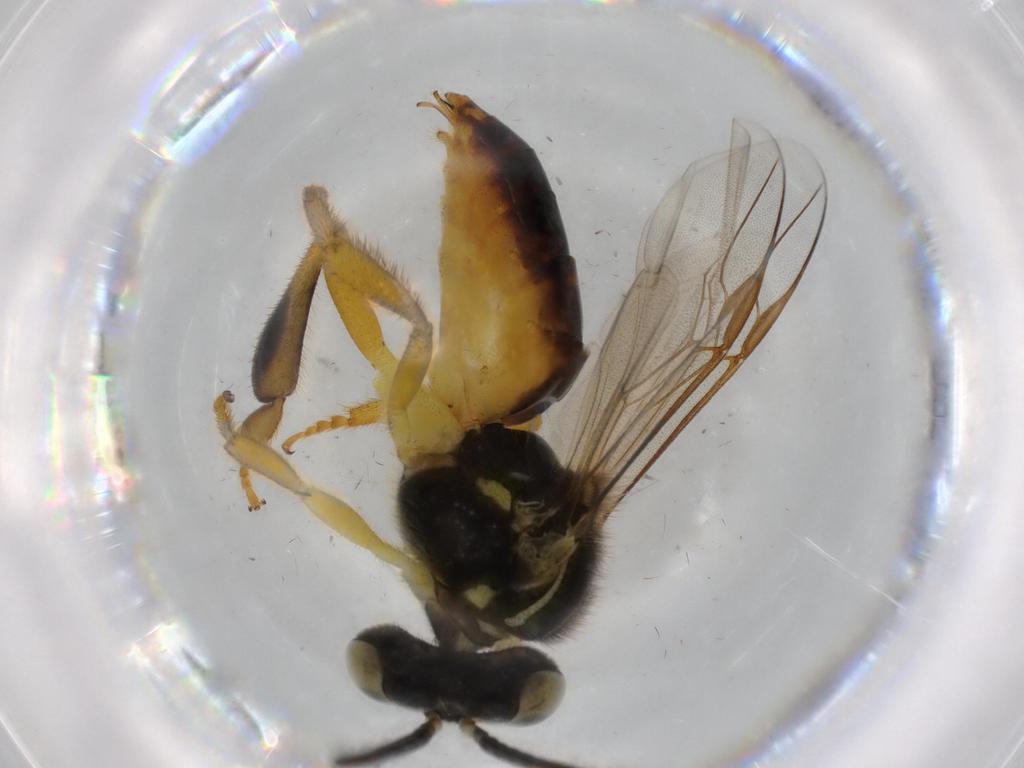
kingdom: Animalia
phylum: Arthropoda
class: Insecta
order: Hymenoptera
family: Apidae
